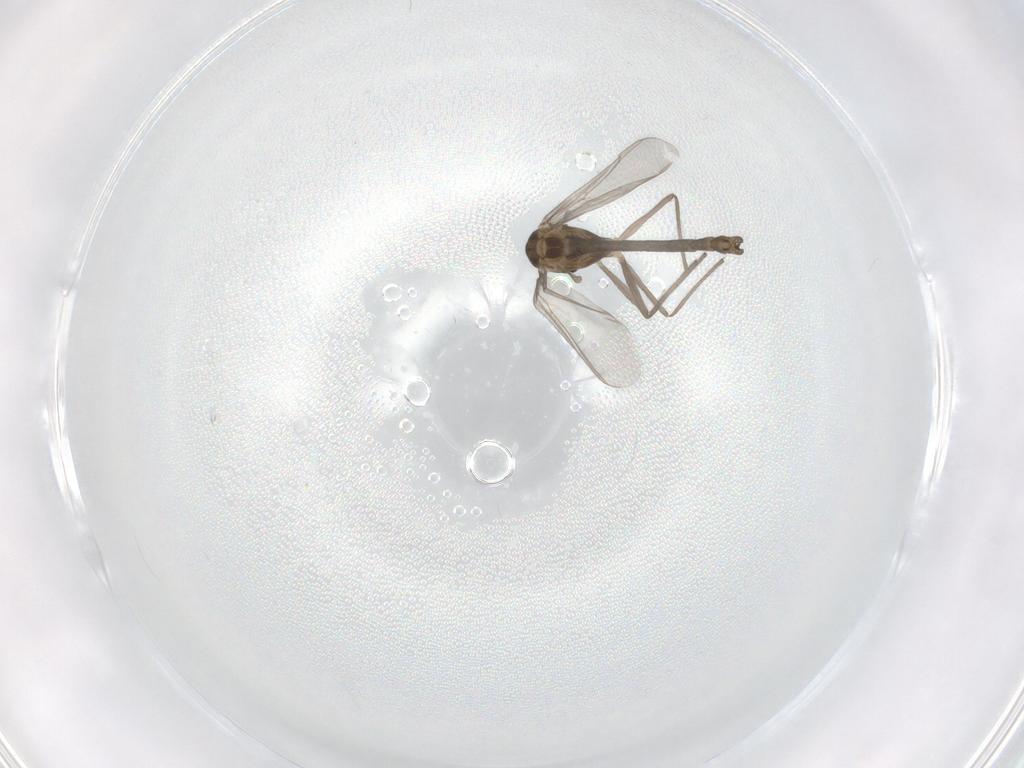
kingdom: Animalia
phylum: Arthropoda
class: Insecta
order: Diptera
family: Chironomidae
